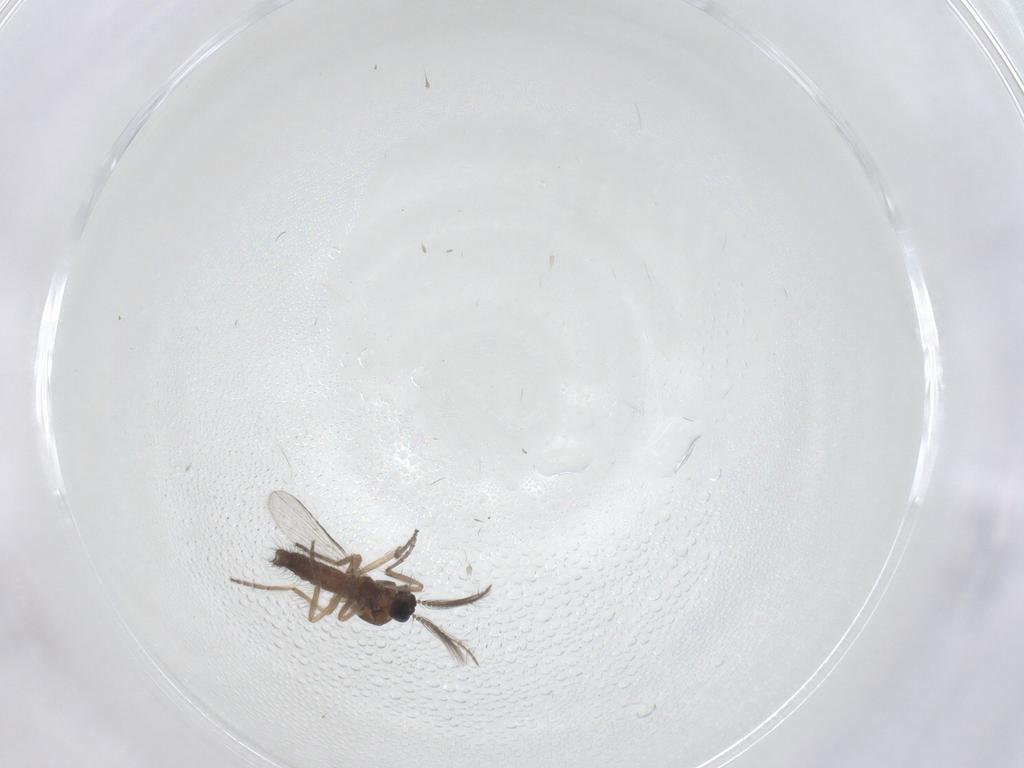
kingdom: Animalia
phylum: Arthropoda
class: Insecta
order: Diptera
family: Ceratopogonidae
